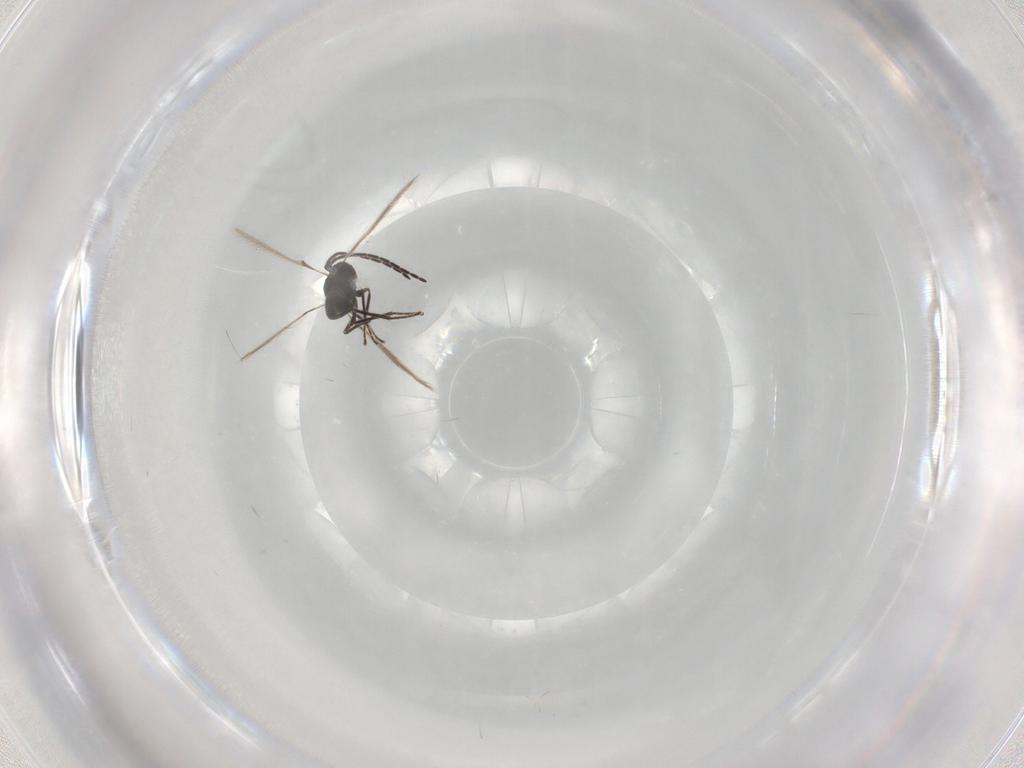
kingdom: Animalia
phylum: Arthropoda
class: Insecta
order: Hymenoptera
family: Ichneumonidae
